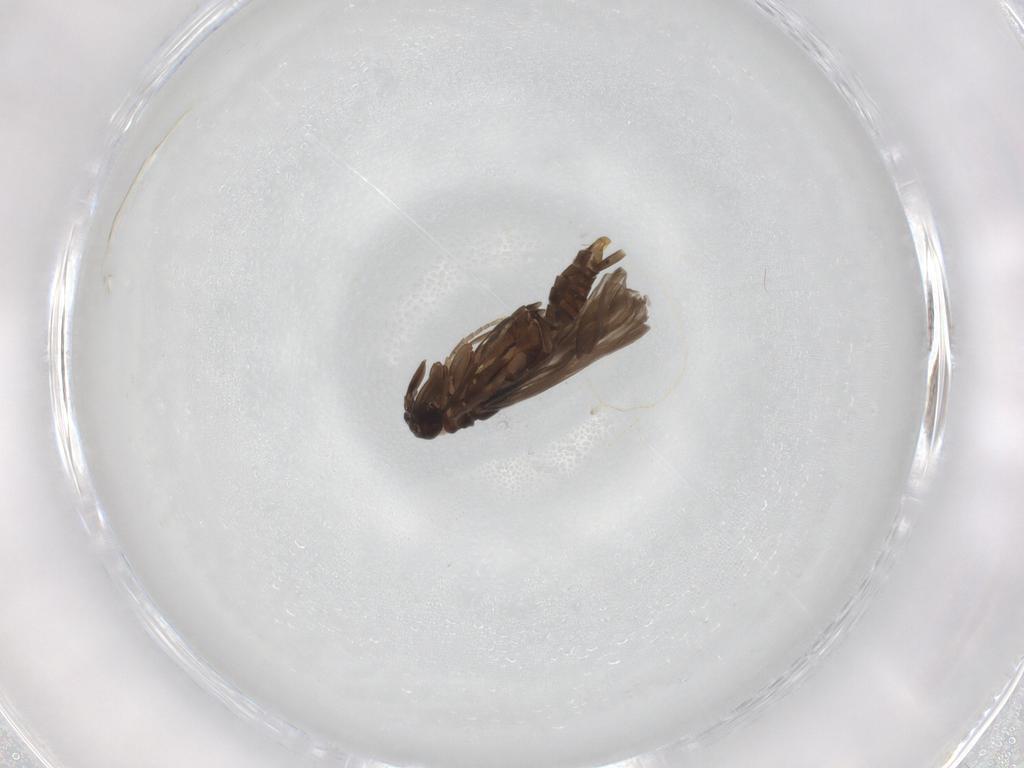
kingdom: Animalia
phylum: Arthropoda
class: Insecta
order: Strepsiptera
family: Mengenillidae
